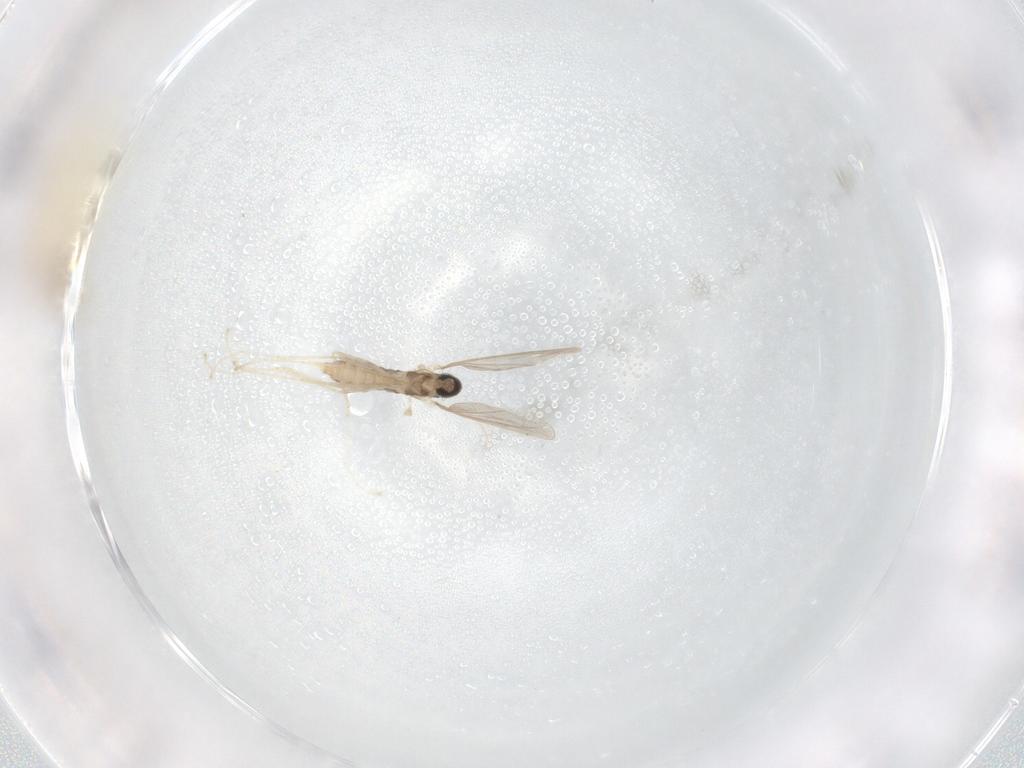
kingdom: Animalia
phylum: Arthropoda
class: Insecta
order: Diptera
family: Cecidomyiidae
